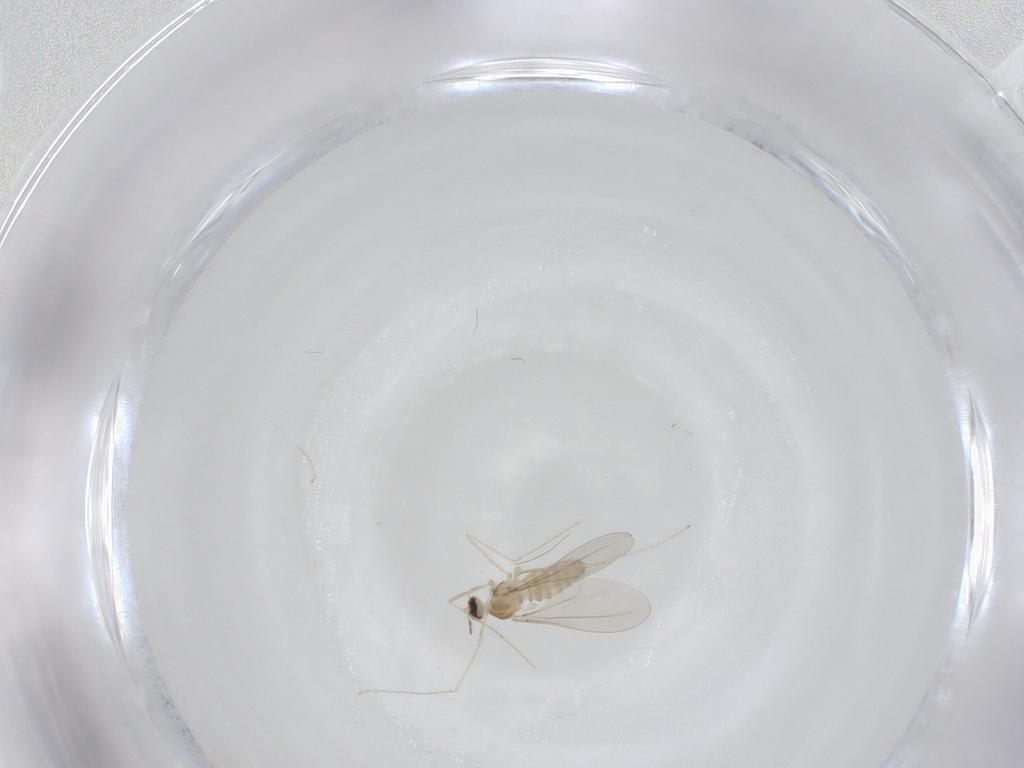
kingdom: Animalia
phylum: Arthropoda
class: Insecta
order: Diptera
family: Cecidomyiidae
